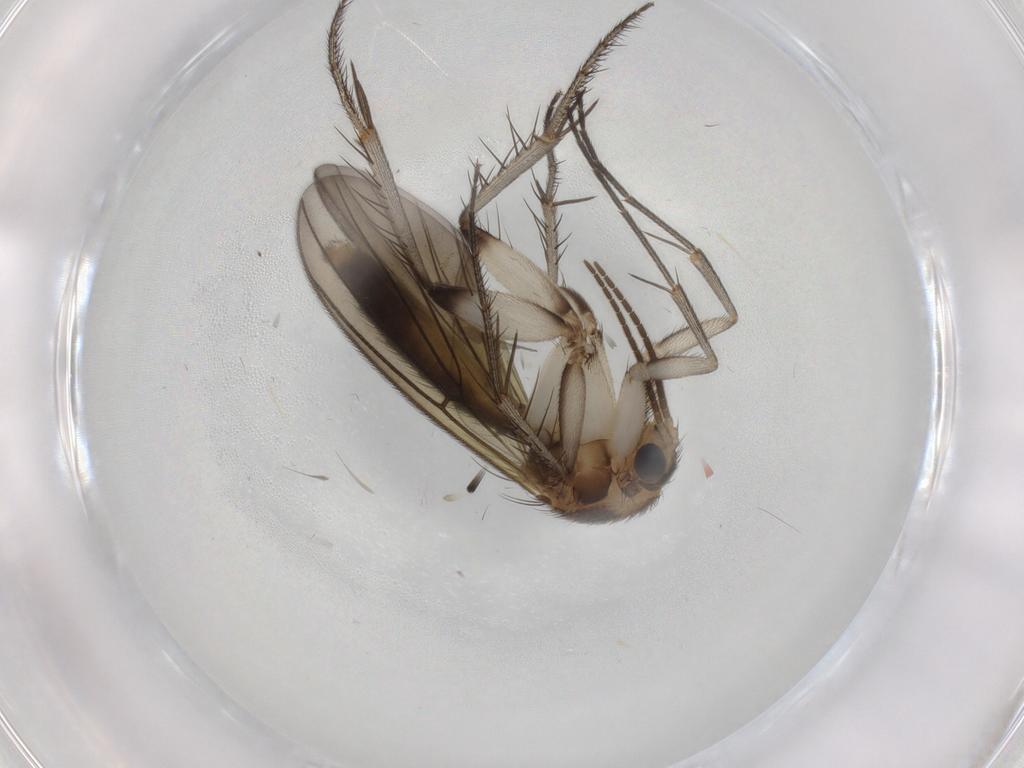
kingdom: Animalia
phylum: Arthropoda
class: Insecta
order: Diptera
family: Mycetophilidae
